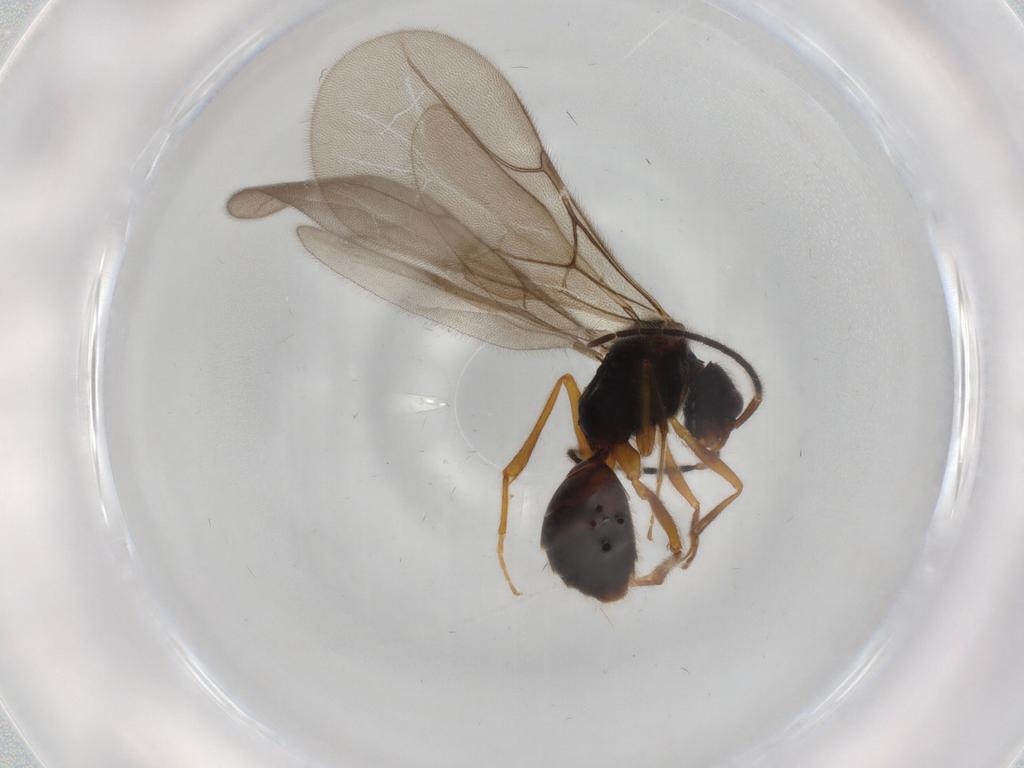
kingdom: Animalia
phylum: Arthropoda
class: Insecta
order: Hymenoptera
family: Bethylidae
